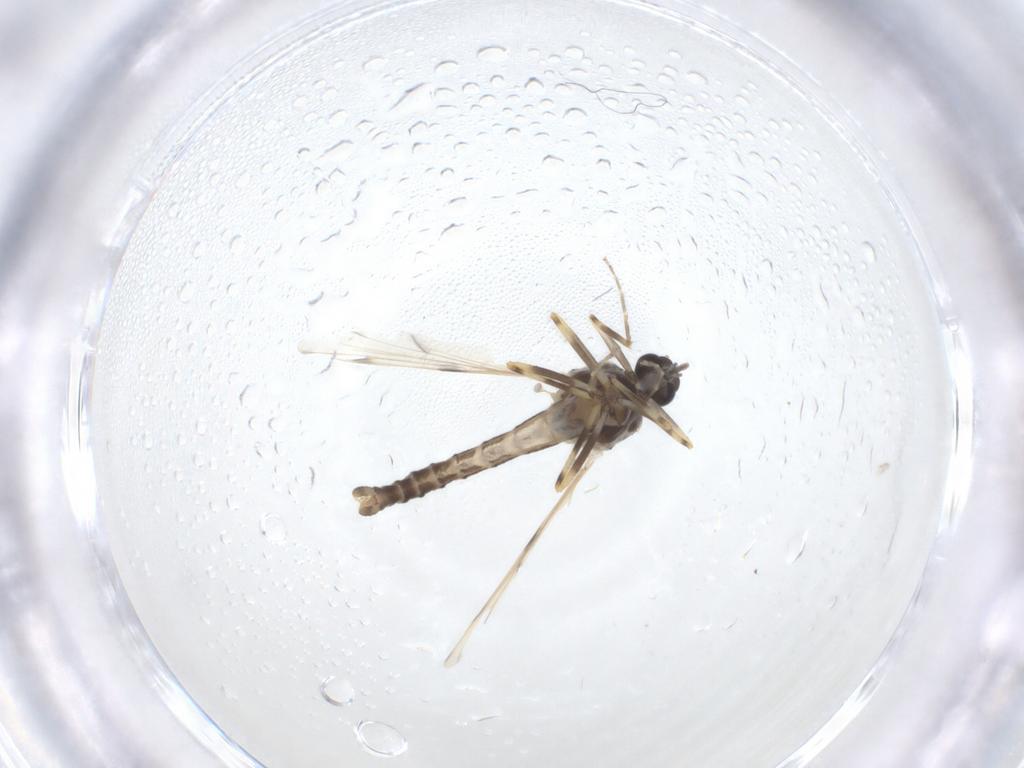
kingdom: Animalia
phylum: Arthropoda
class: Insecta
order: Diptera
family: Ceratopogonidae
